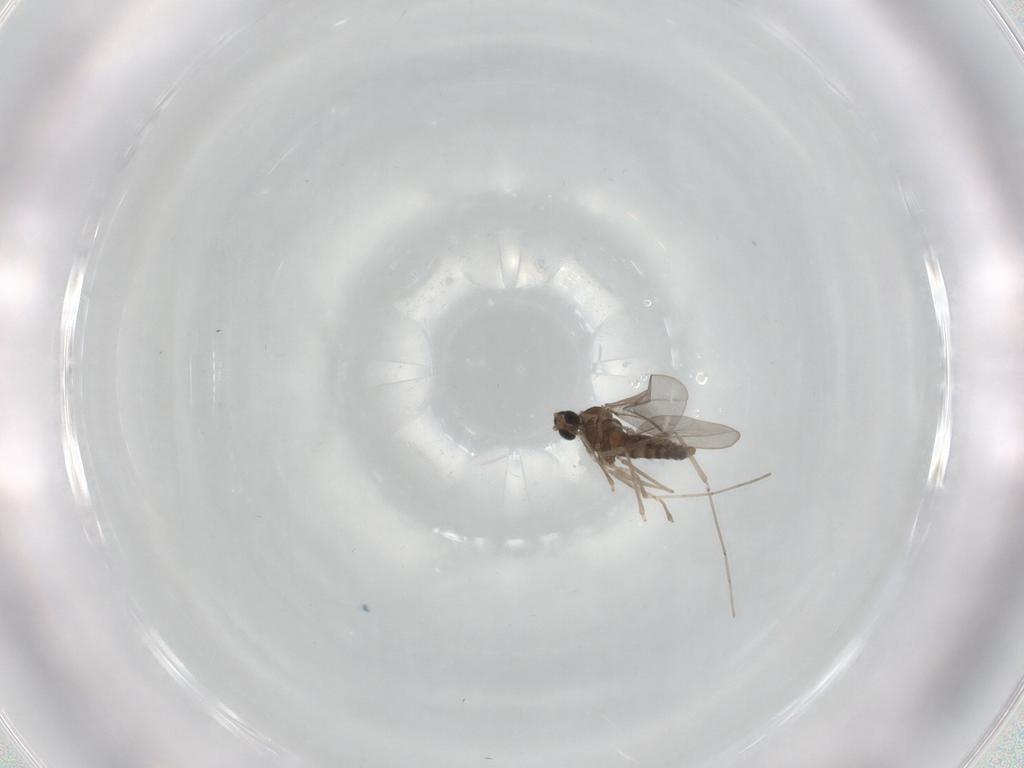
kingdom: Animalia
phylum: Arthropoda
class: Insecta
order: Diptera
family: Cecidomyiidae
